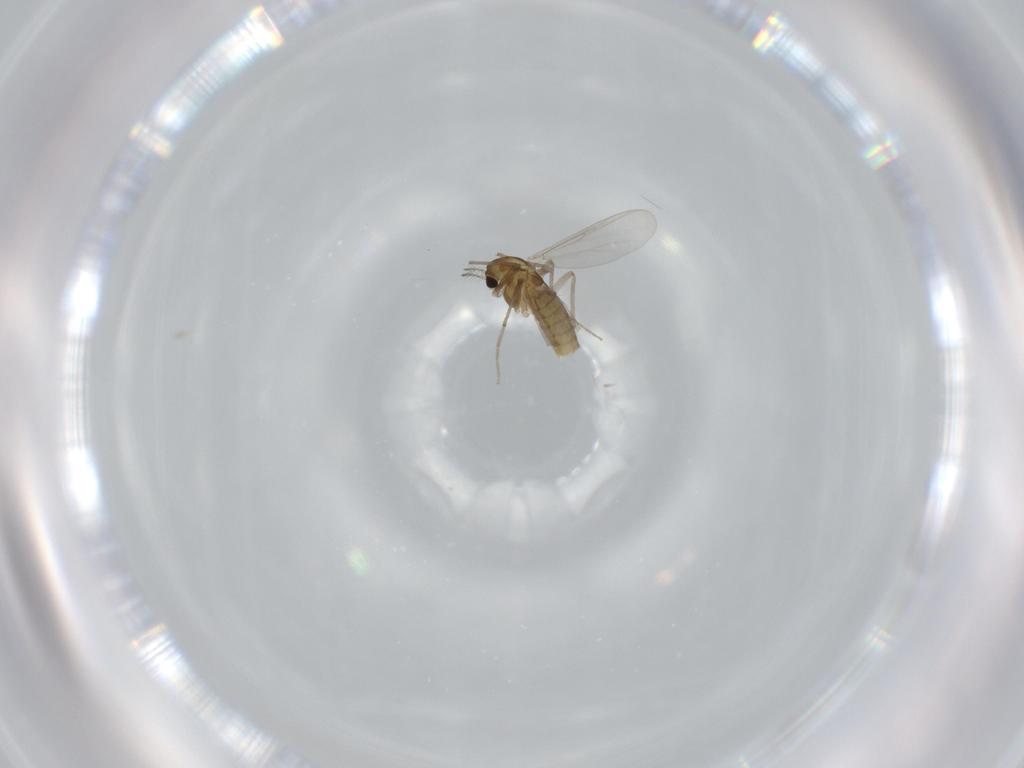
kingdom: Animalia
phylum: Arthropoda
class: Insecta
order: Diptera
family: Chironomidae
